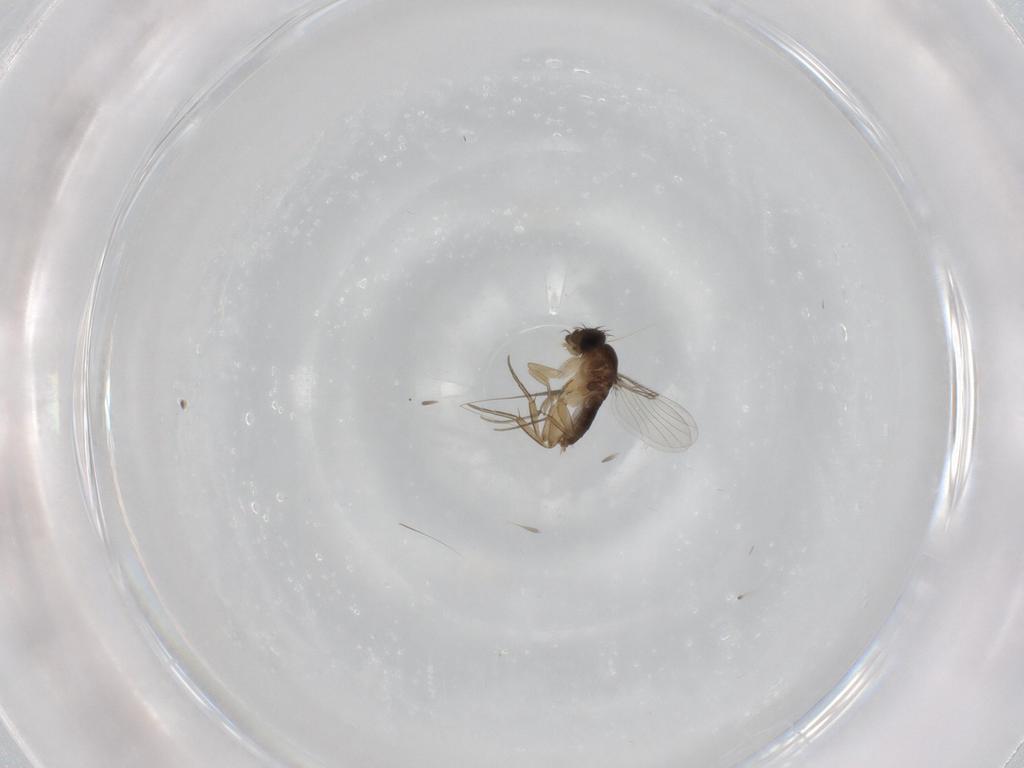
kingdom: Animalia
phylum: Arthropoda
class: Insecta
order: Diptera
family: Phoridae
